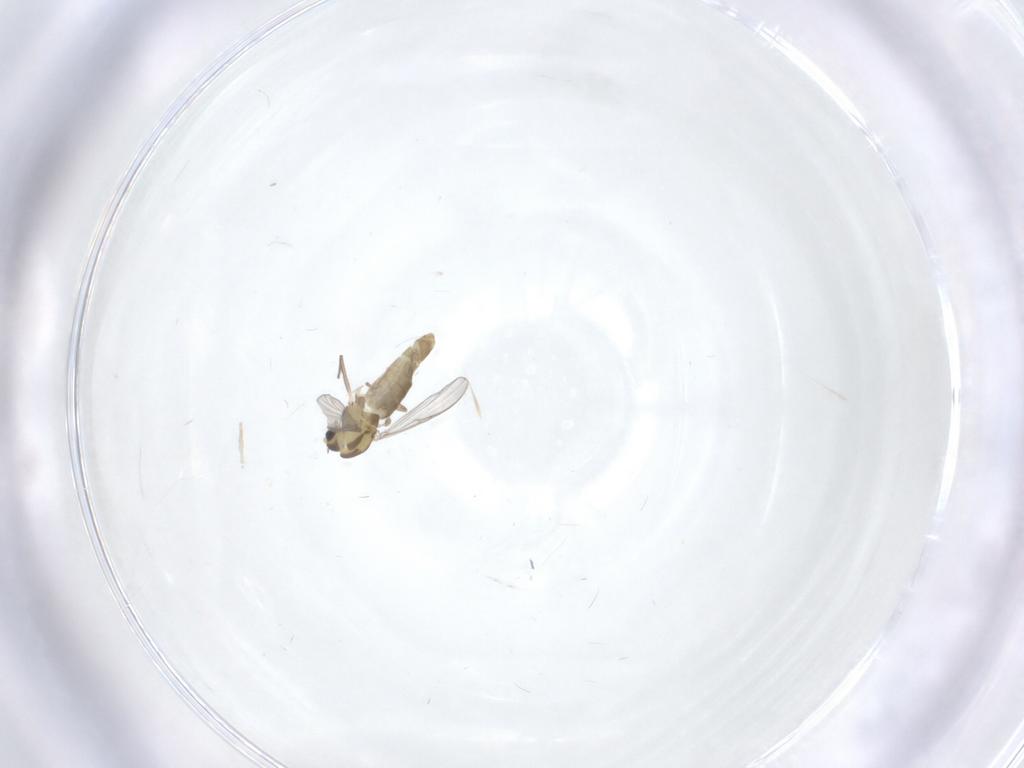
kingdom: Animalia
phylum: Arthropoda
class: Insecta
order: Diptera
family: Chironomidae
